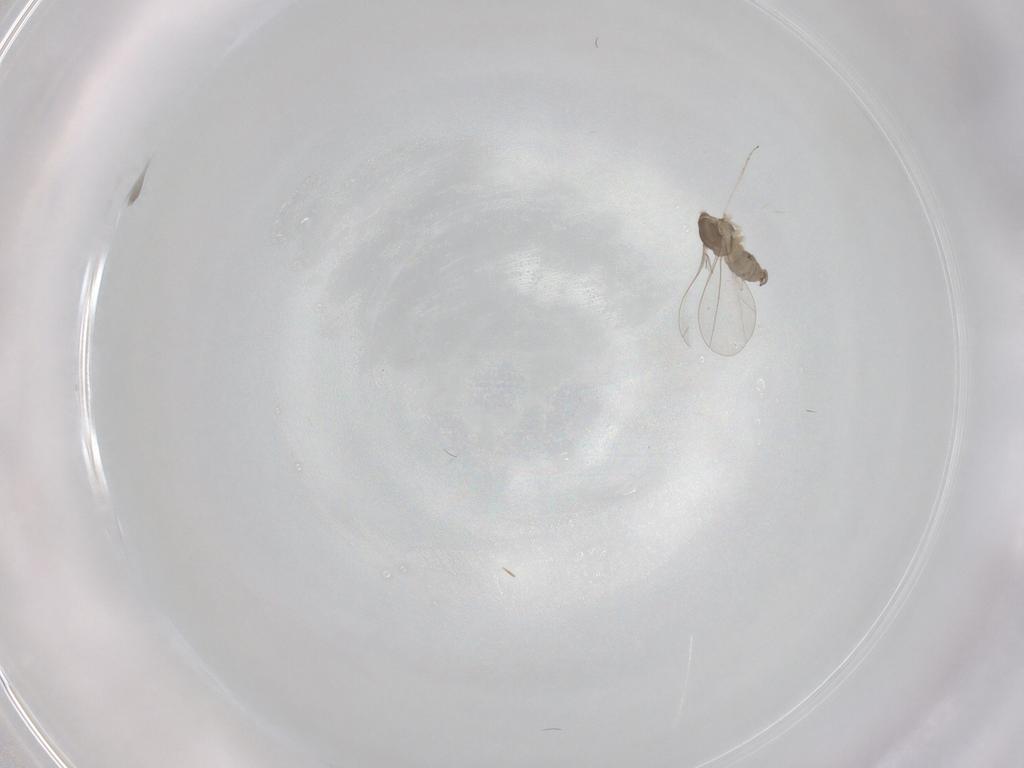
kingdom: Animalia
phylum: Arthropoda
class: Insecta
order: Diptera
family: Cecidomyiidae
